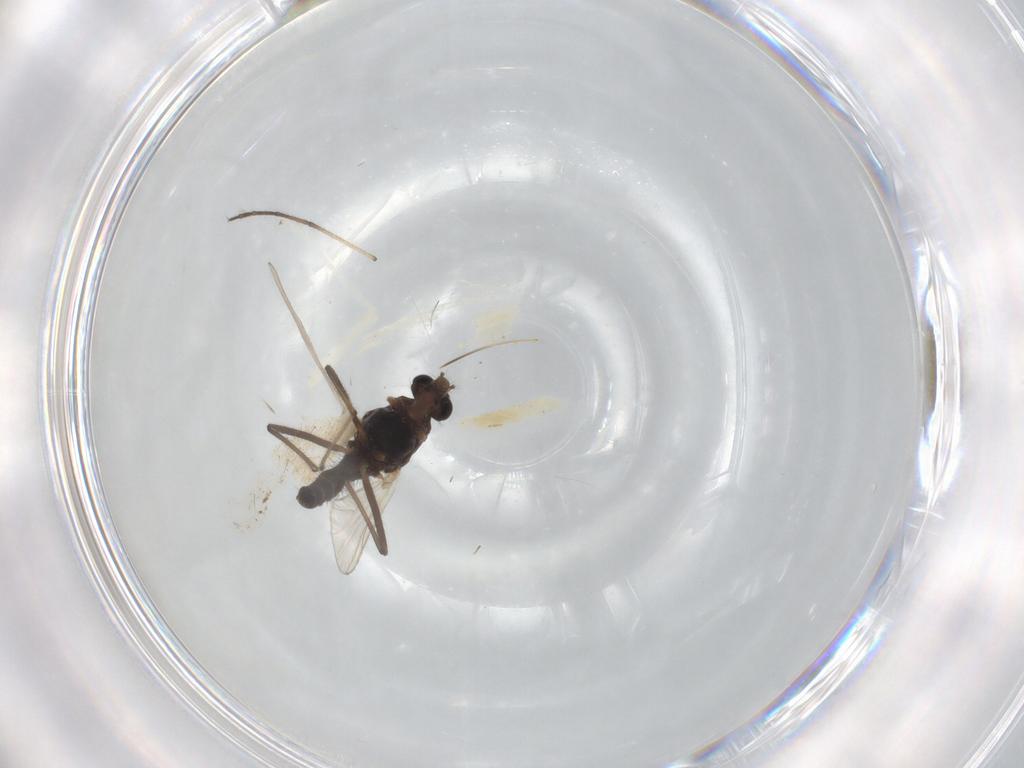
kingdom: Animalia
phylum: Arthropoda
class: Insecta
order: Diptera
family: Chironomidae
